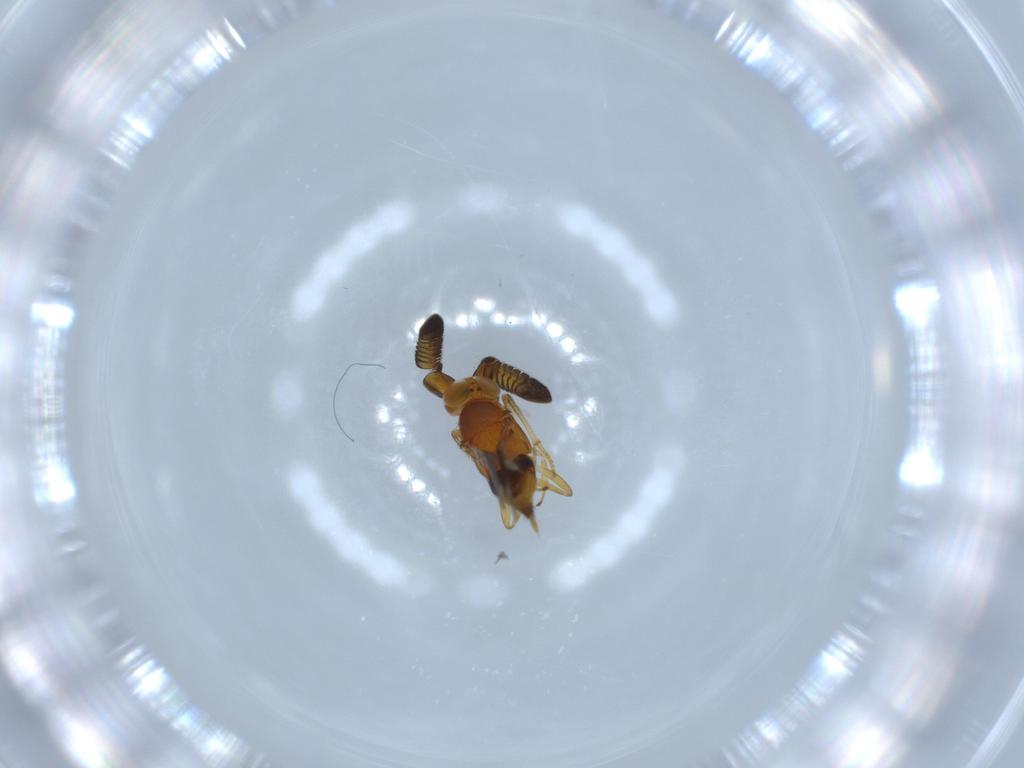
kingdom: Animalia
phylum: Arthropoda
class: Insecta
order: Hymenoptera
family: Encyrtidae
